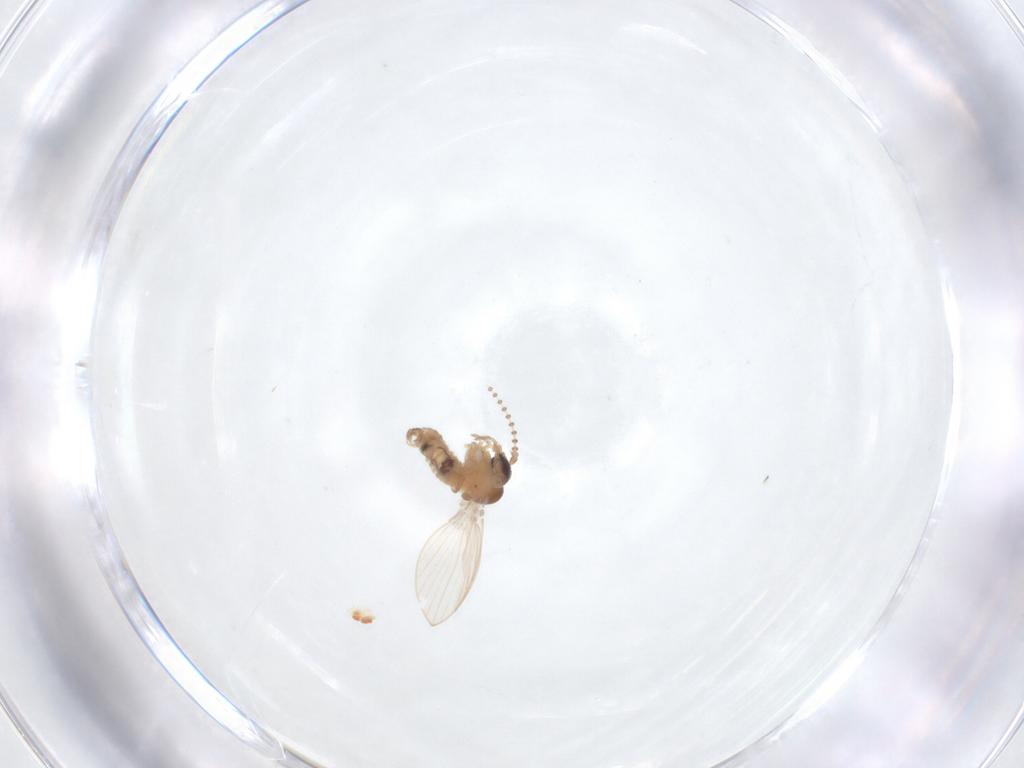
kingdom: Animalia
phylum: Arthropoda
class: Insecta
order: Diptera
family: Psychodidae
